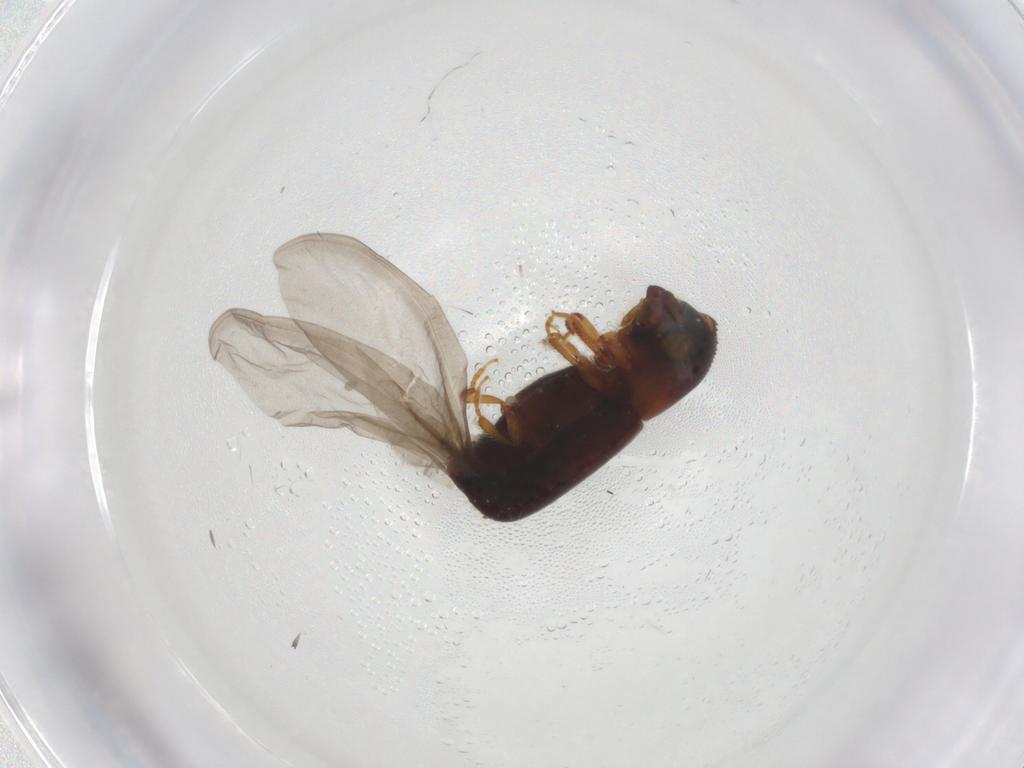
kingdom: Animalia
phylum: Arthropoda
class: Insecta
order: Coleoptera
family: Curculionidae
